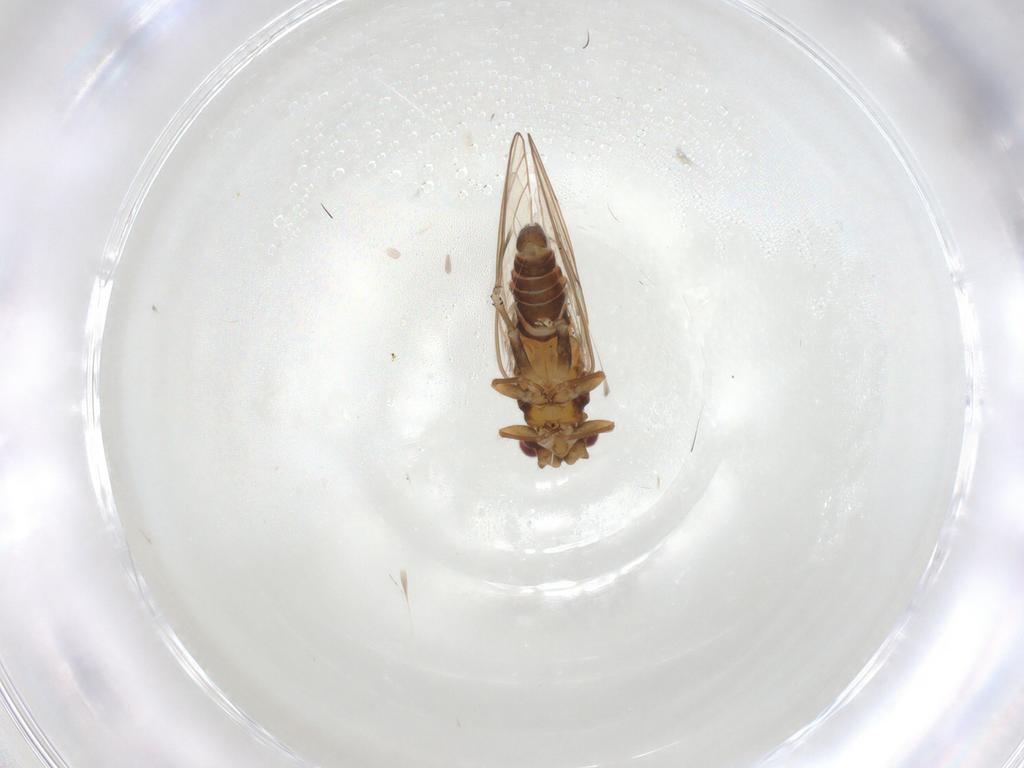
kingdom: Animalia
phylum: Arthropoda
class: Insecta
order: Hemiptera
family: Psyllidae
